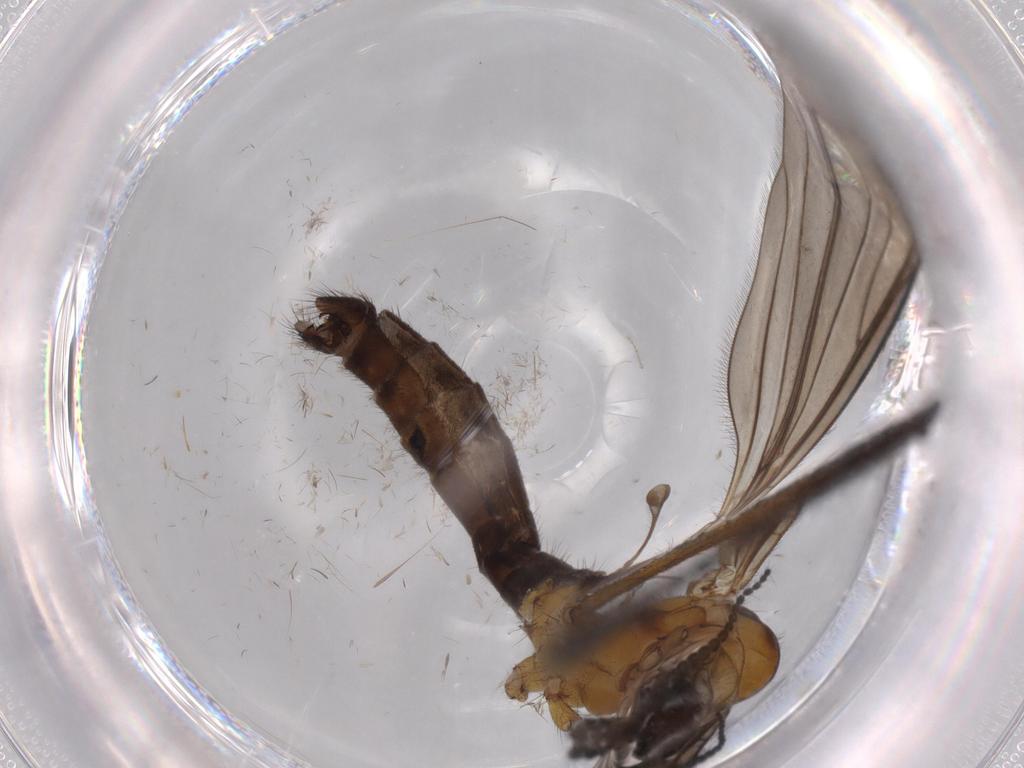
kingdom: Animalia
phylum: Arthropoda
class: Insecta
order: Diptera
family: Limoniidae
